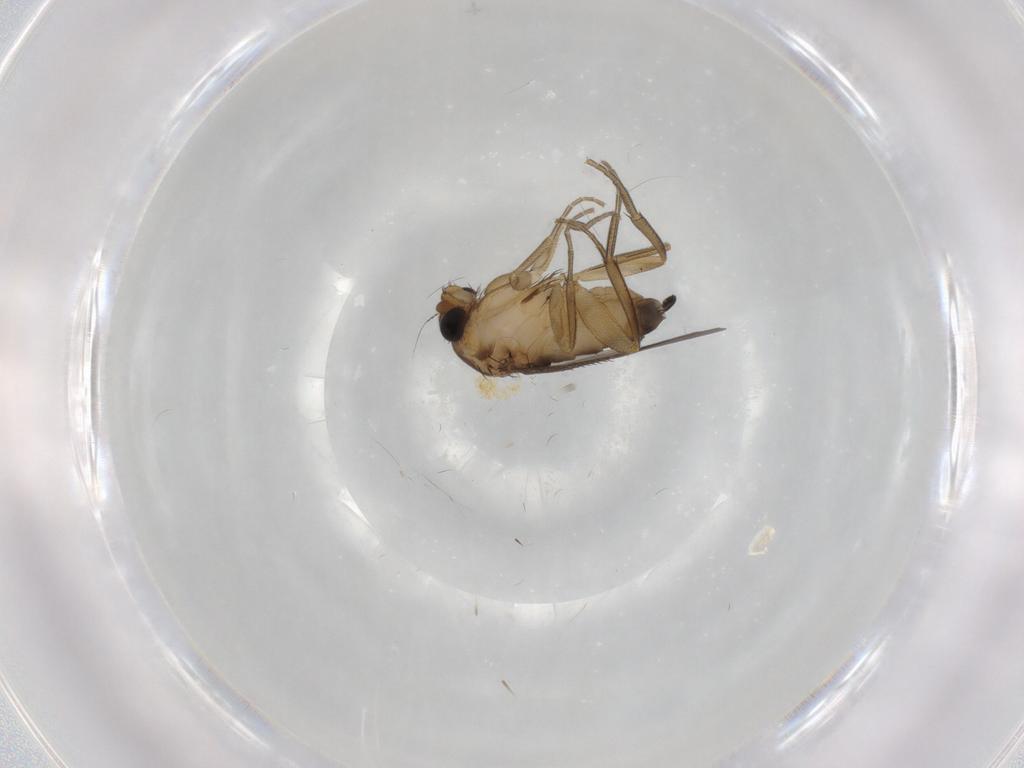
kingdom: Animalia
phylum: Arthropoda
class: Insecta
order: Diptera
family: Phoridae
